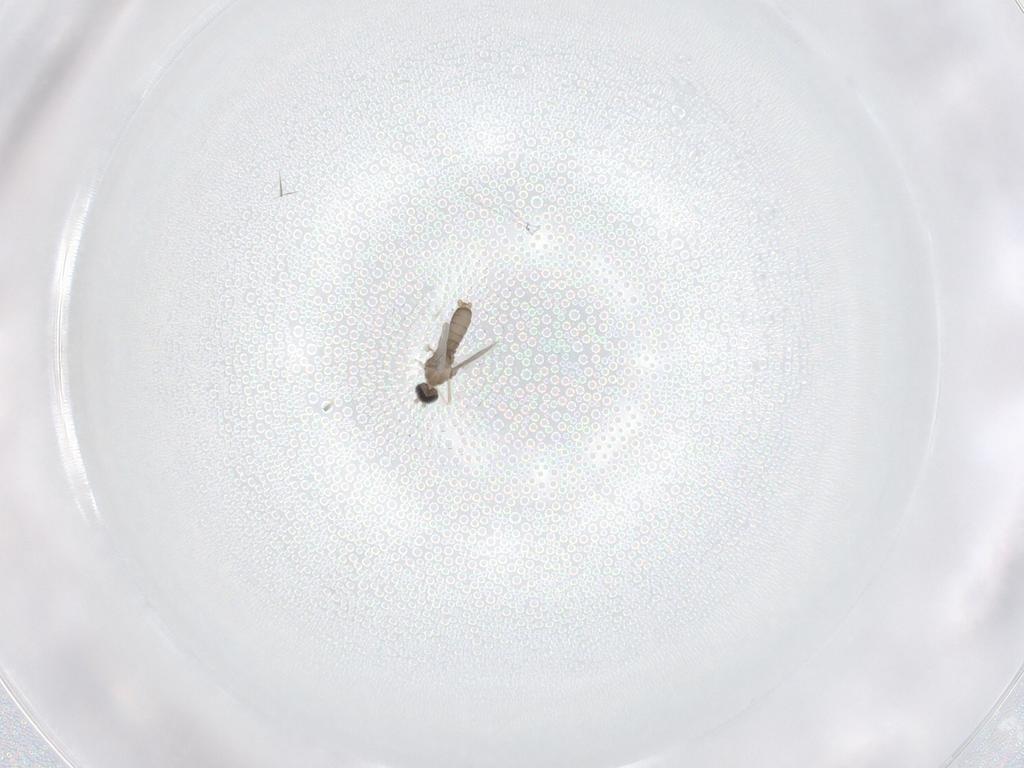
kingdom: Animalia
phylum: Arthropoda
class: Insecta
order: Diptera
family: Cecidomyiidae
